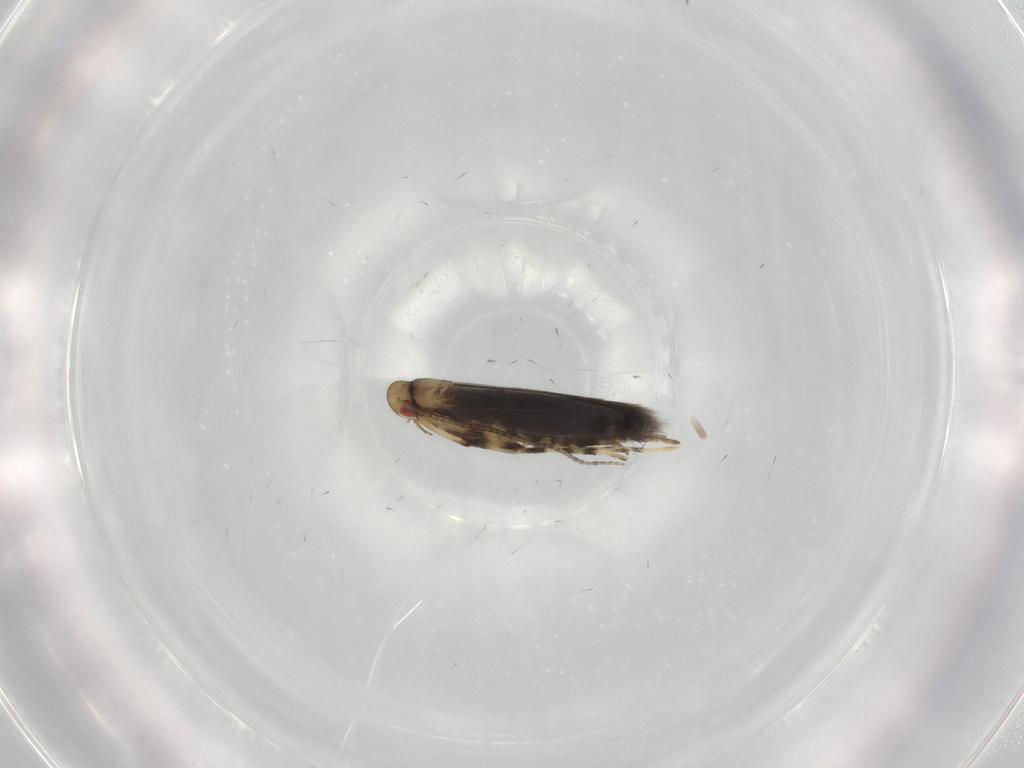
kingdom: Animalia
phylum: Arthropoda
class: Insecta
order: Lepidoptera
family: Gracillariidae
